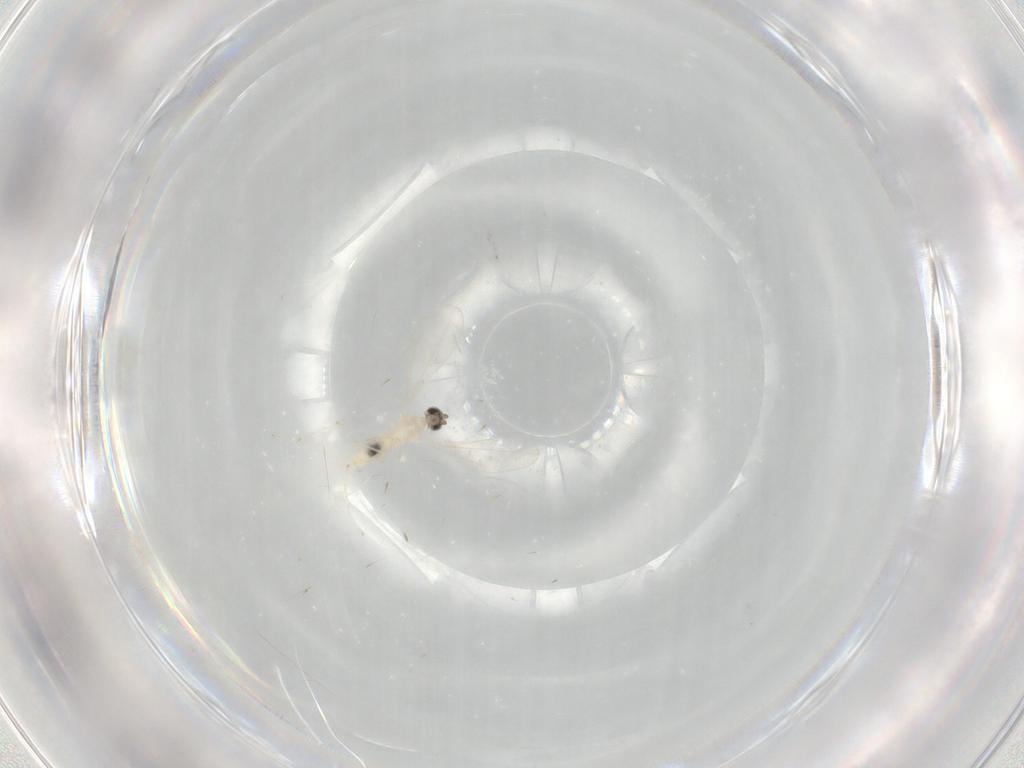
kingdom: Animalia
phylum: Arthropoda
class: Insecta
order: Diptera
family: Cecidomyiidae
